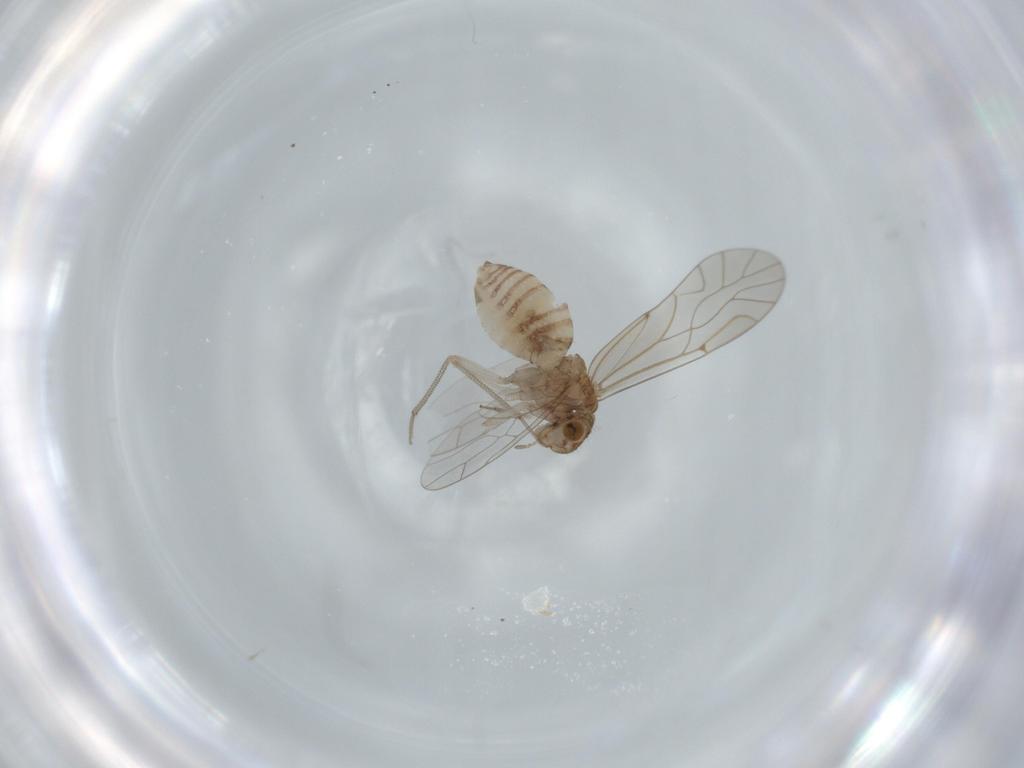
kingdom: Animalia
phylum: Arthropoda
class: Insecta
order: Psocodea
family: Lachesillidae
